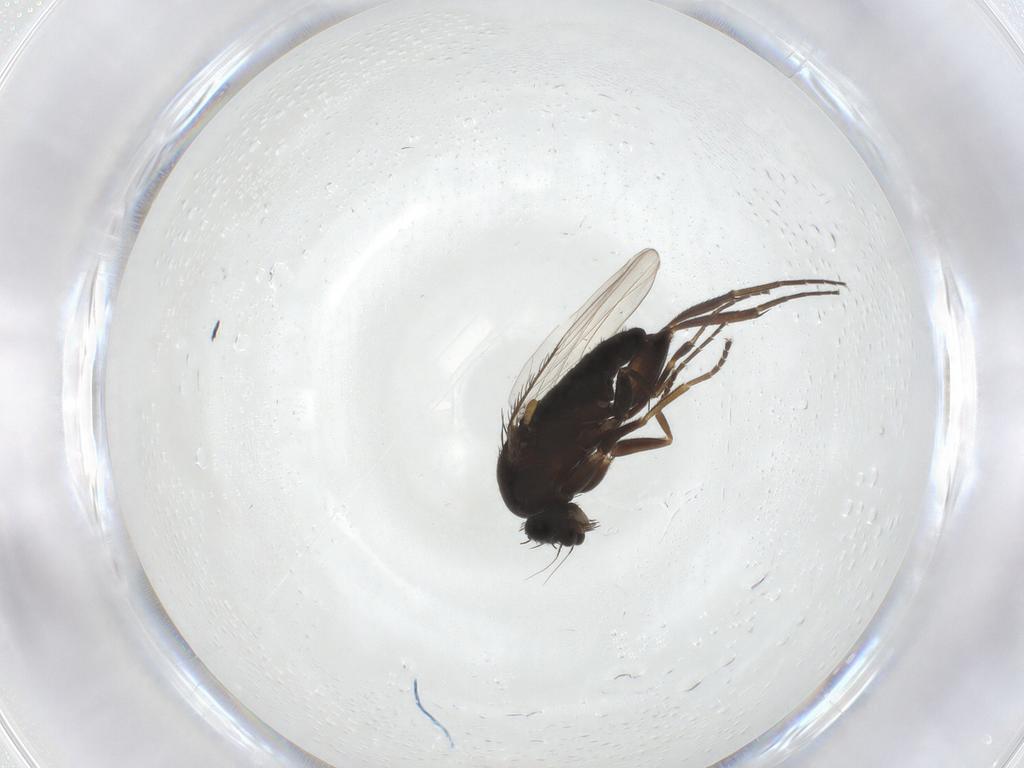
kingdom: Animalia
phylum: Arthropoda
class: Insecta
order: Diptera
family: Phoridae
